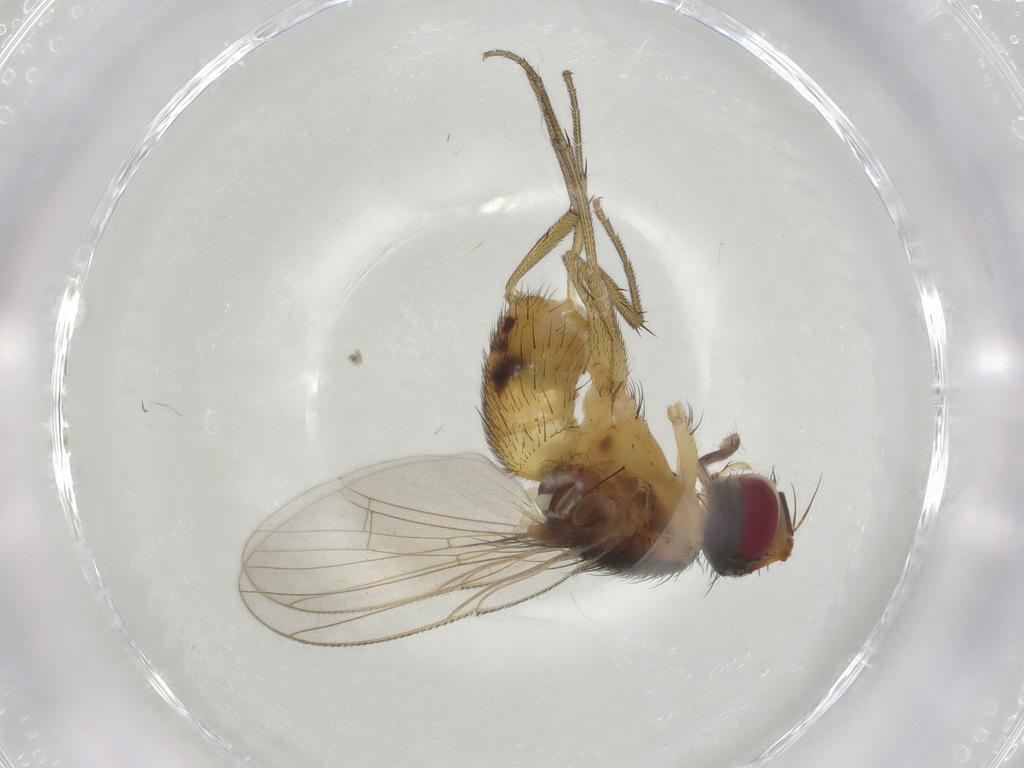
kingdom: Animalia
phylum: Arthropoda
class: Insecta
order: Diptera
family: Muscidae
